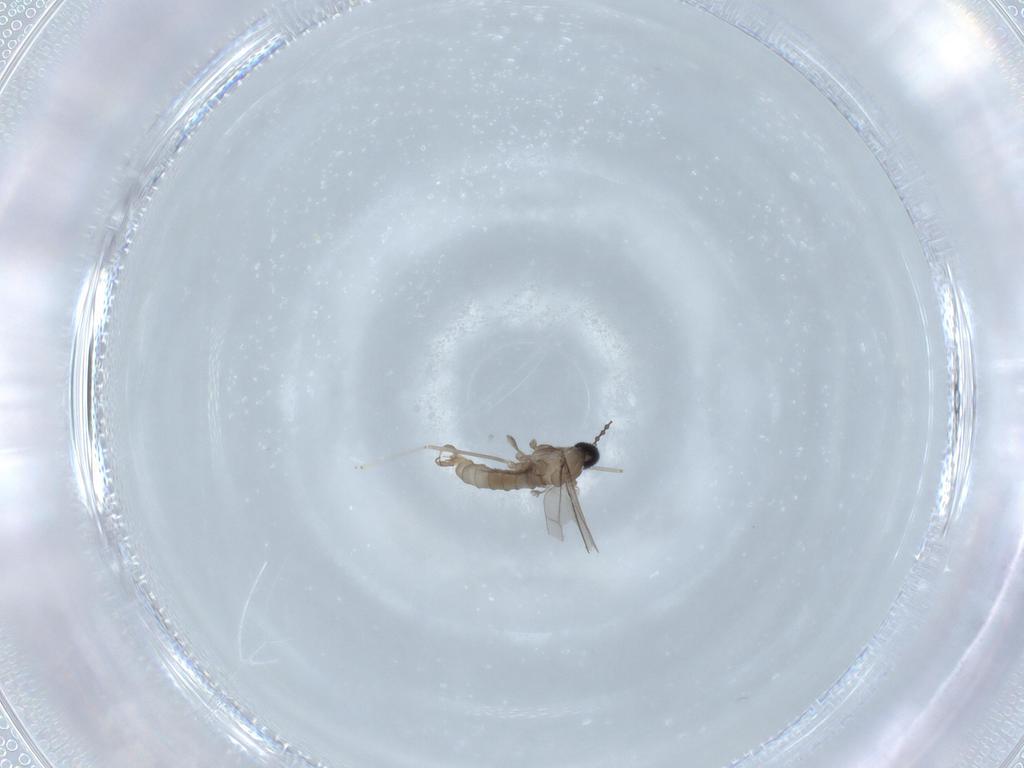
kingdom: Animalia
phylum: Arthropoda
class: Insecta
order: Diptera
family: Cecidomyiidae
